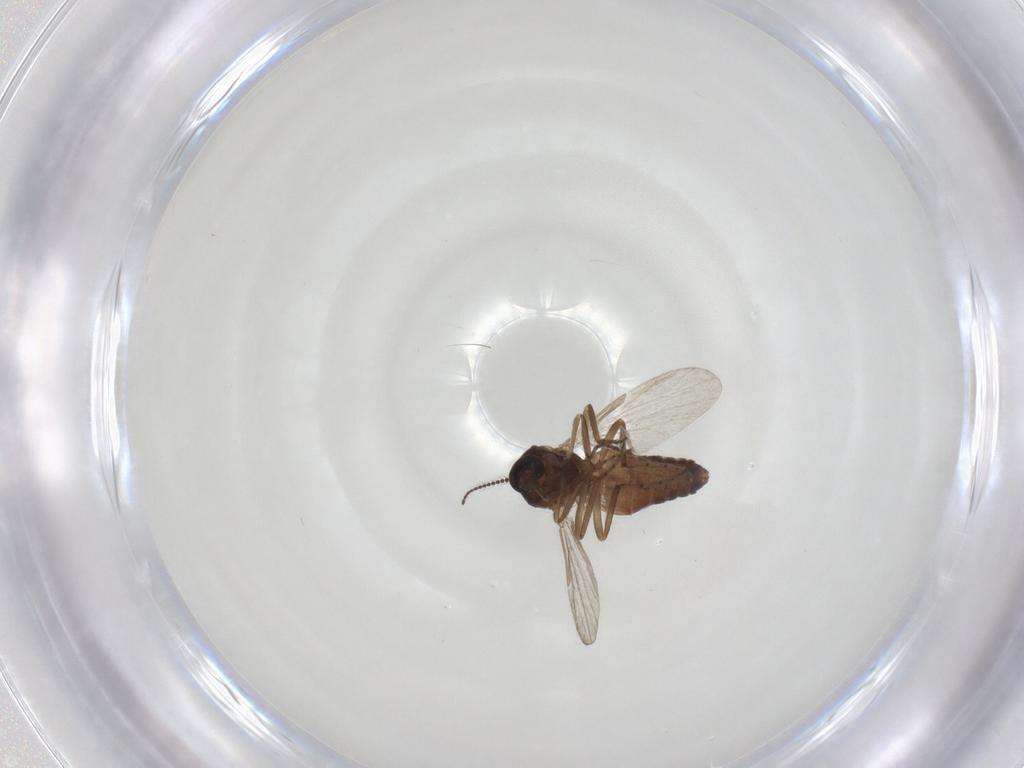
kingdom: Animalia
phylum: Arthropoda
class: Insecta
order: Diptera
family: Ceratopogonidae
